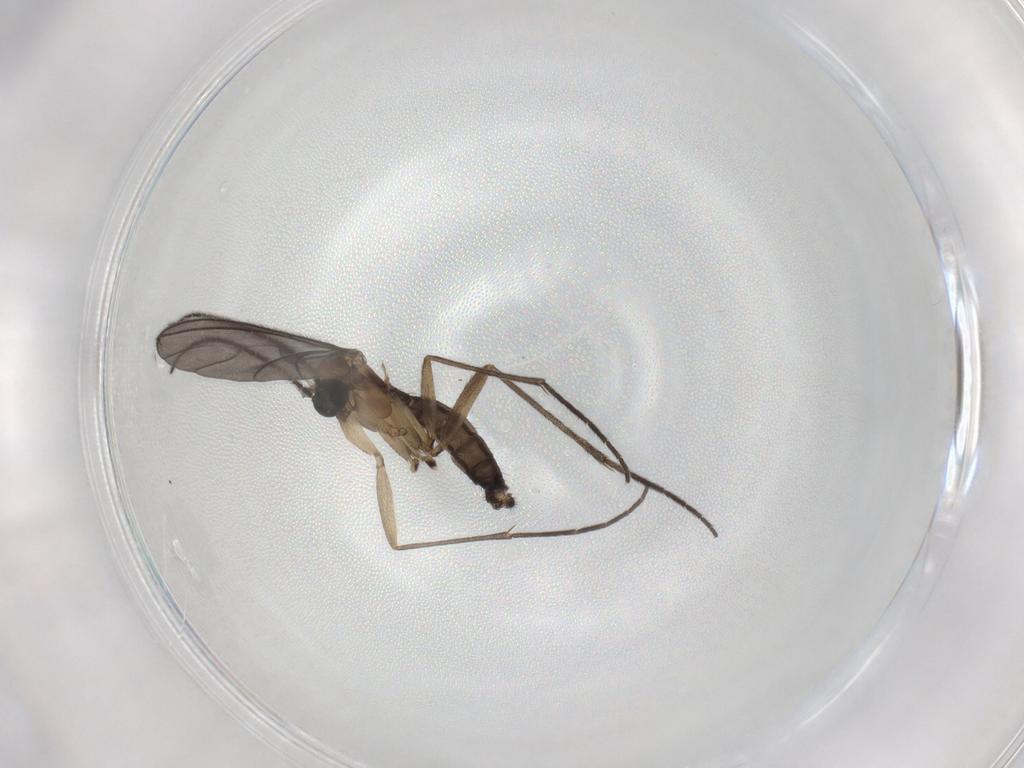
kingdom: Animalia
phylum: Arthropoda
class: Insecta
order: Diptera
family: Sciaridae
